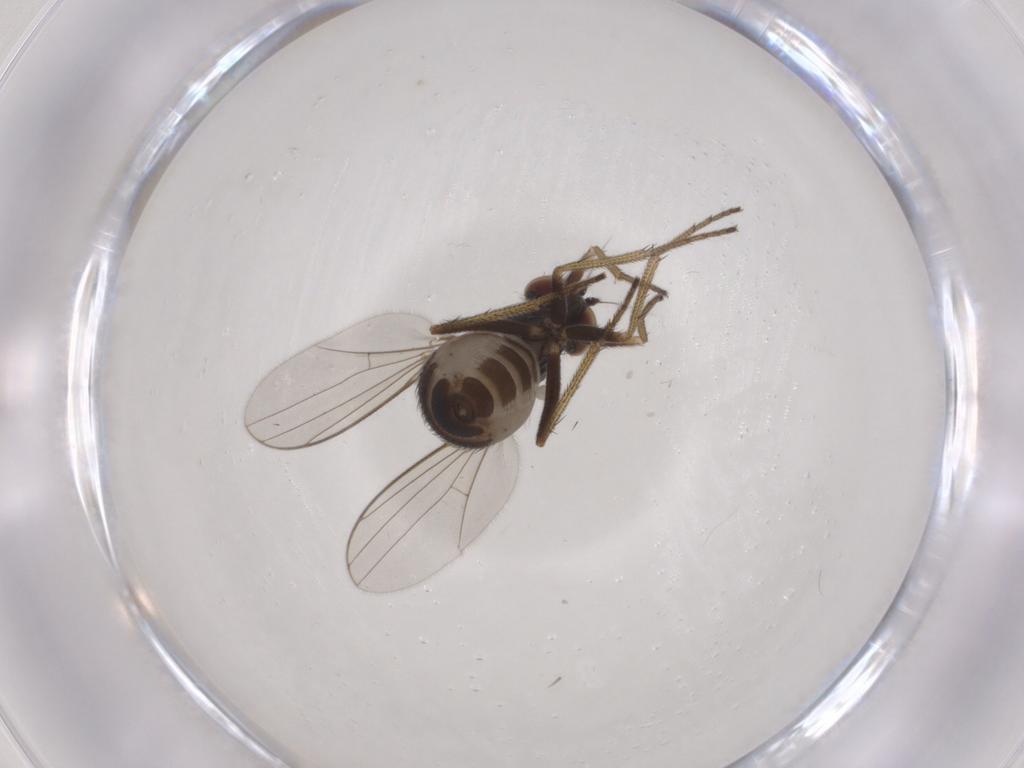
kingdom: Animalia
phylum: Arthropoda
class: Insecta
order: Diptera
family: Cecidomyiidae
